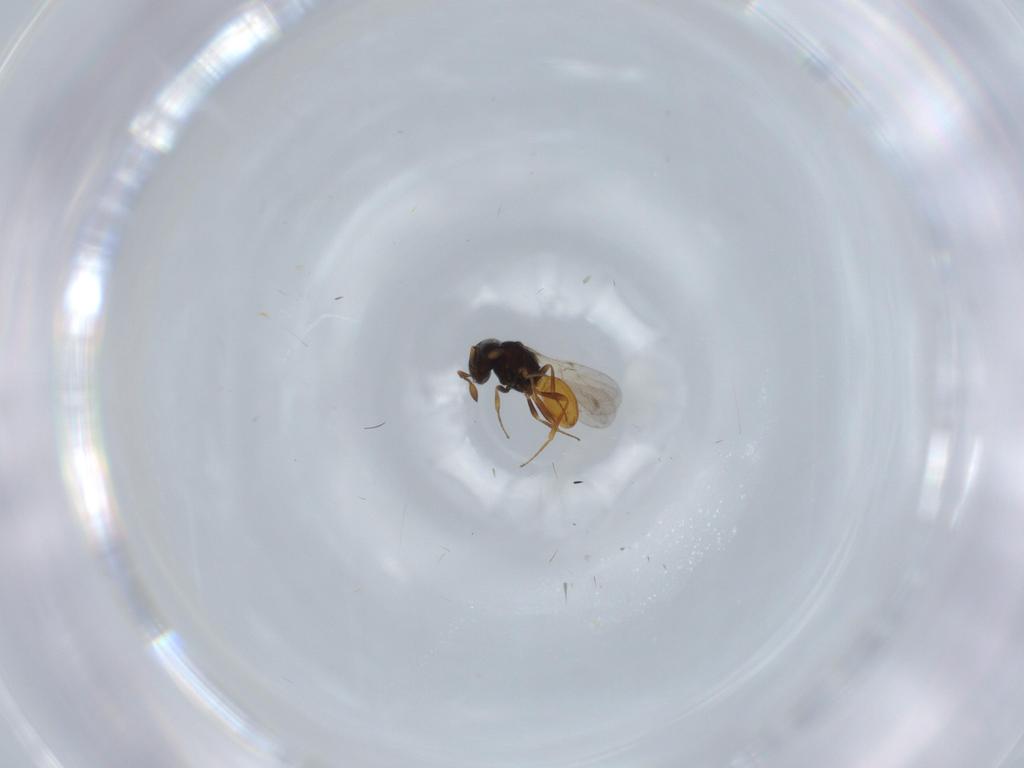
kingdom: Animalia
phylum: Arthropoda
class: Insecta
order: Hymenoptera
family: Scelionidae
